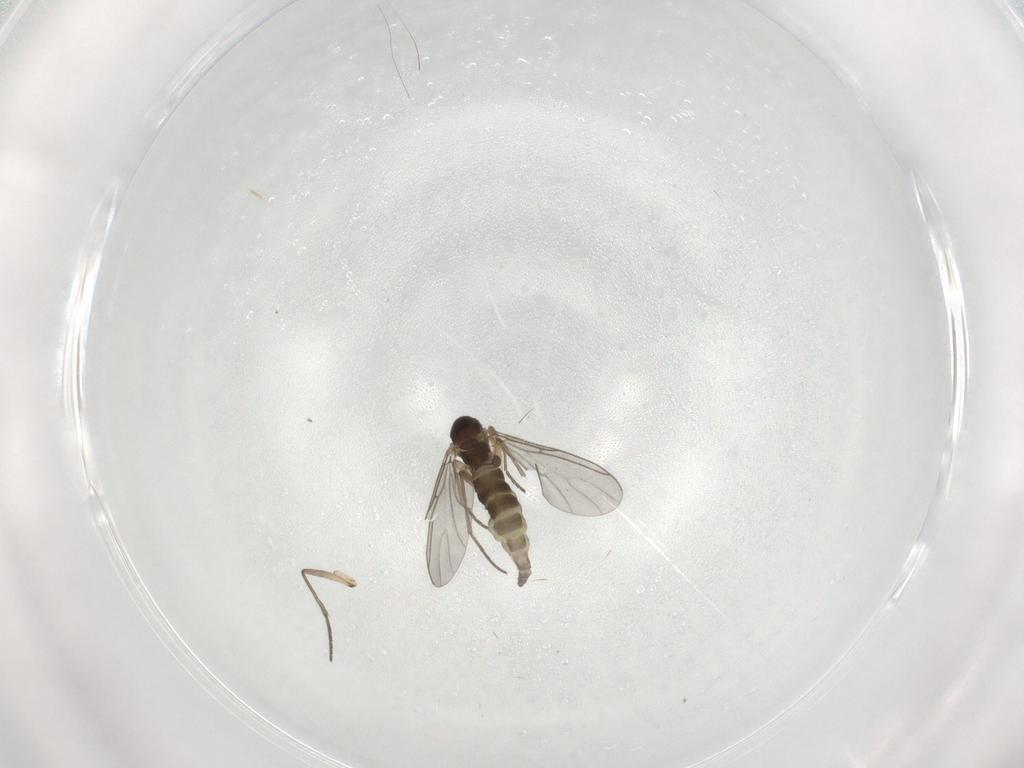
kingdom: Animalia
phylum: Arthropoda
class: Insecta
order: Diptera
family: Sciaridae
